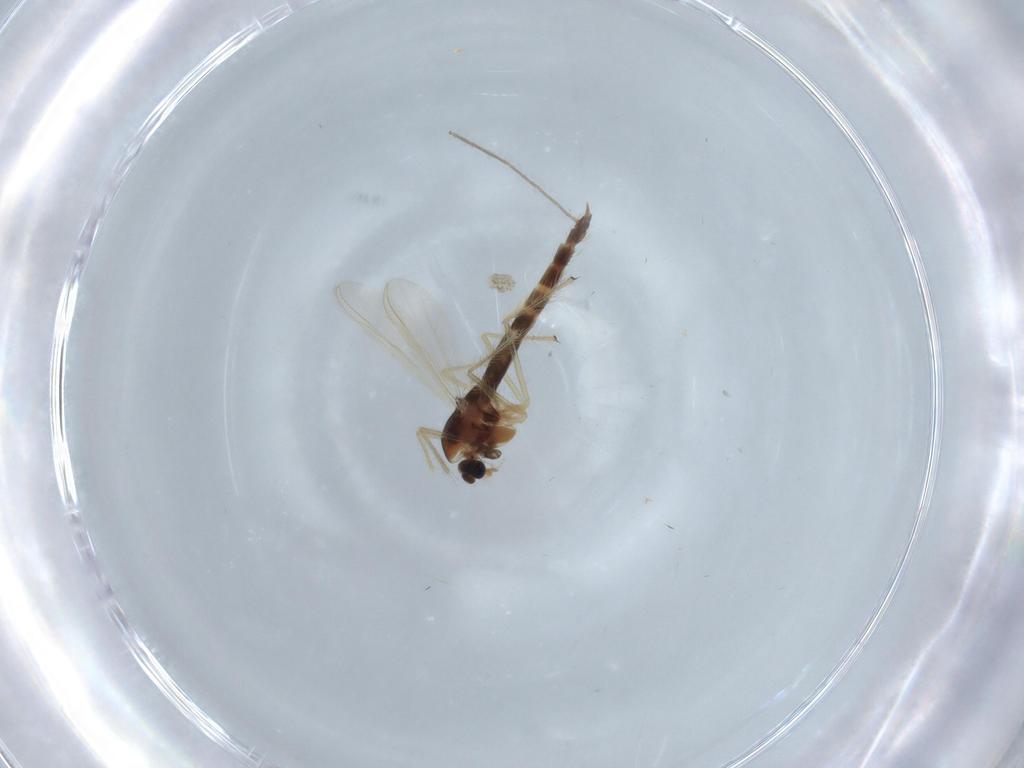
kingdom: Animalia
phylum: Arthropoda
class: Insecta
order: Diptera
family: Chironomidae
